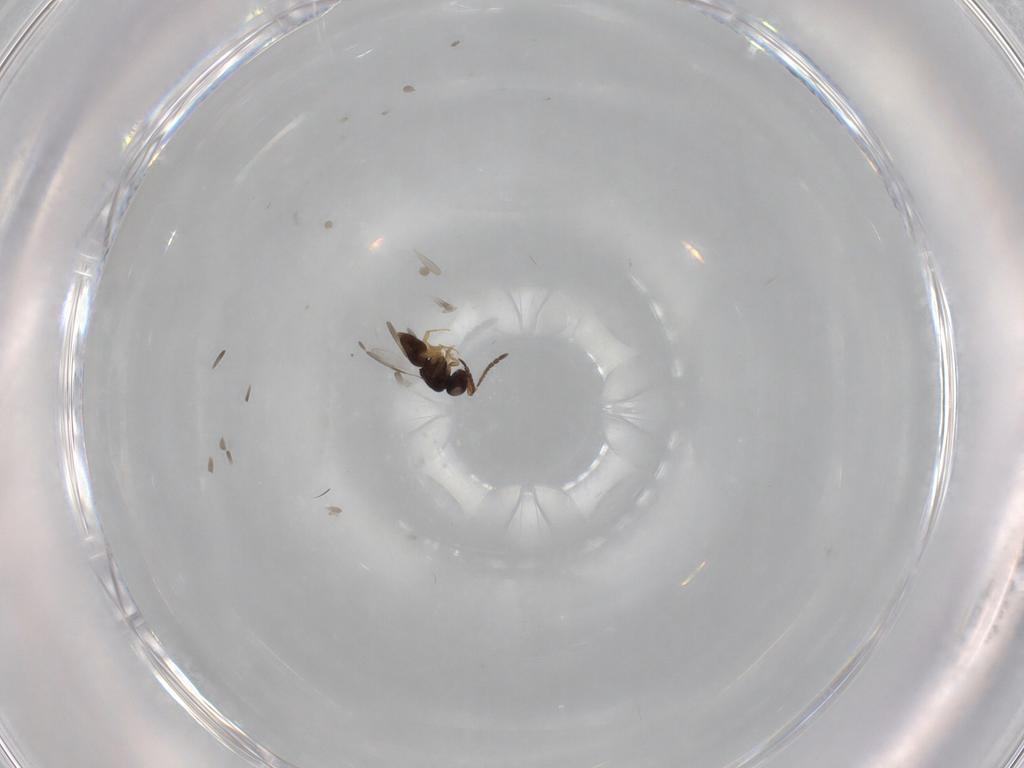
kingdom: Animalia
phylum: Arthropoda
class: Insecta
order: Hymenoptera
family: Ceraphronidae
